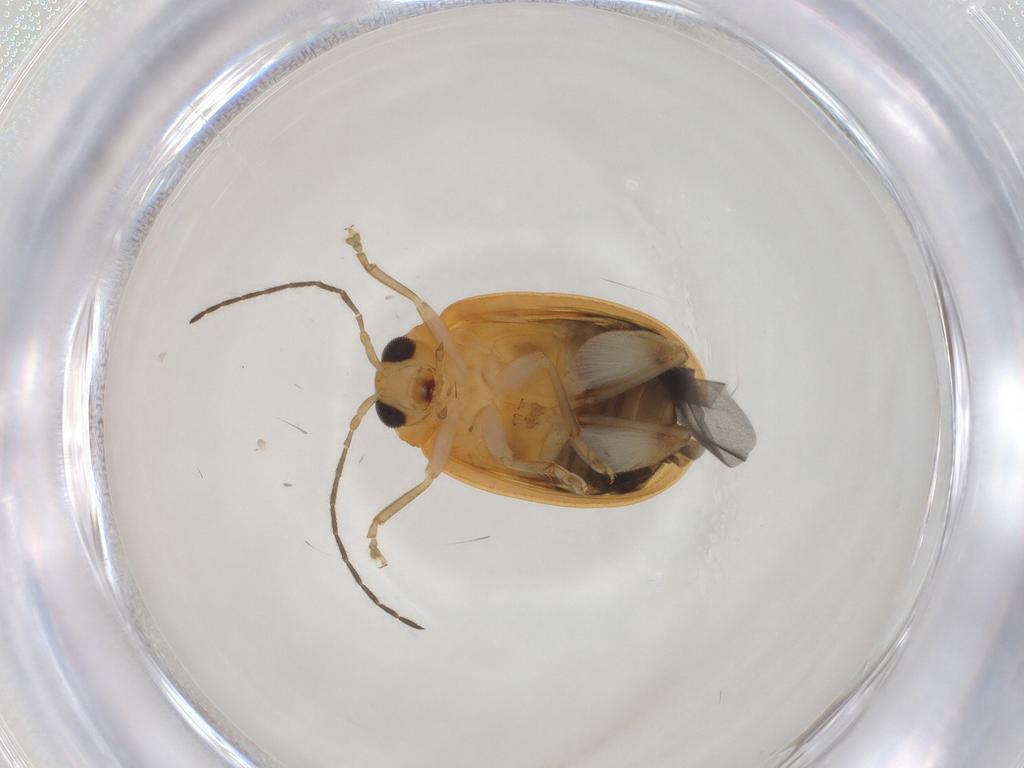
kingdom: Animalia
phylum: Arthropoda
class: Insecta
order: Coleoptera
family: Chrysomelidae
